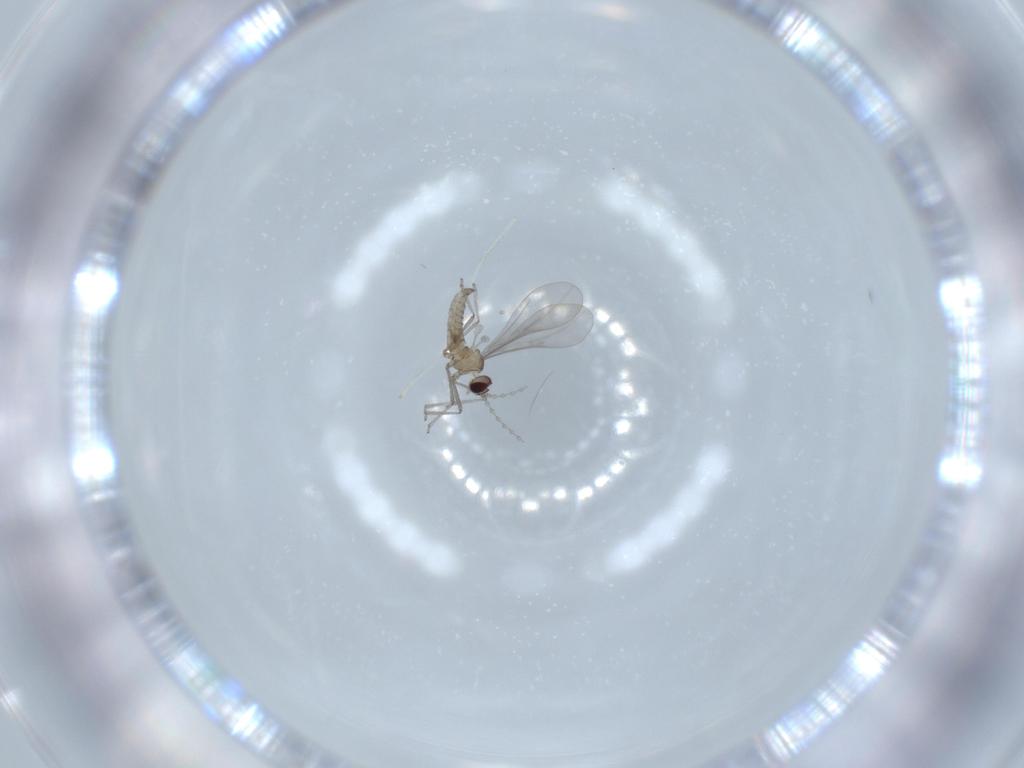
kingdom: Animalia
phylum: Arthropoda
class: Insecta
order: Diptera
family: Cecidomyiidae
